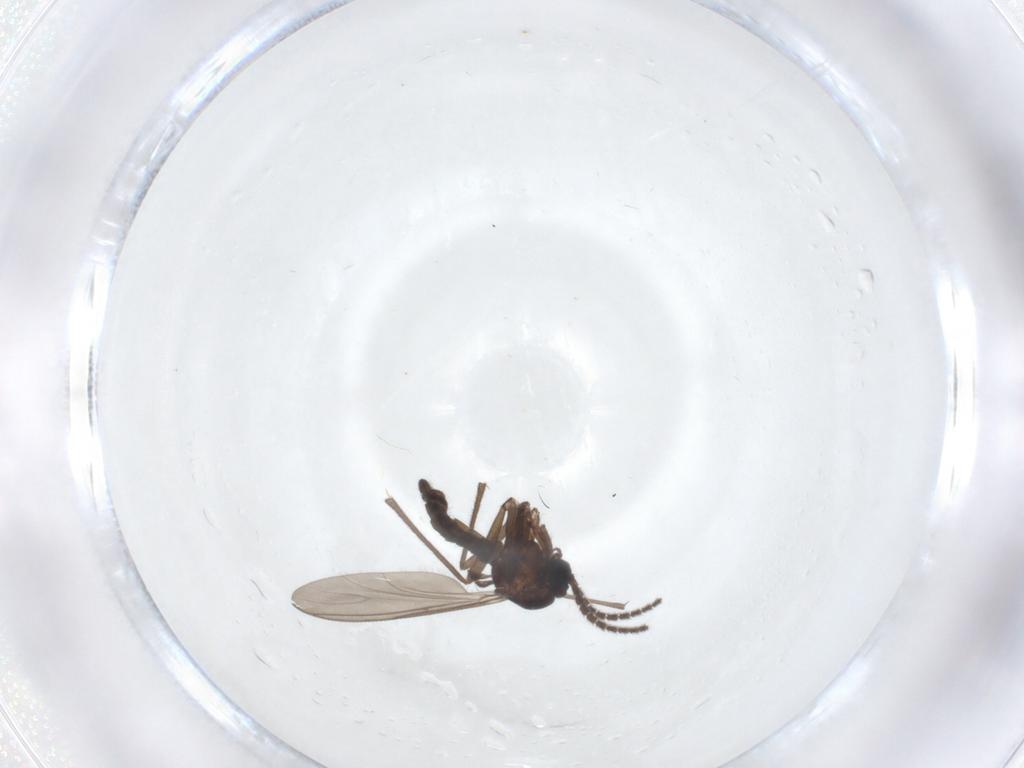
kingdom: Animalia
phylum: Arthropoda
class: Insecta
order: Diptera
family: Sciaridae
